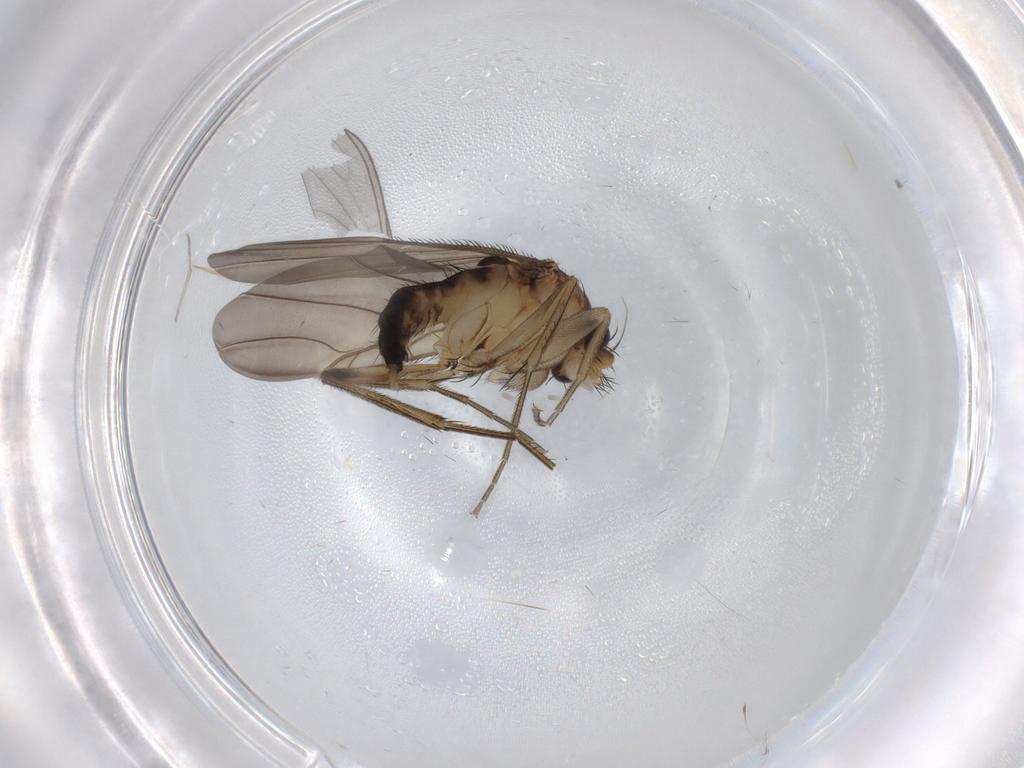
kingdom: Animalia
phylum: Arthropoda
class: Insecta
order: Diptera
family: Phoridae
